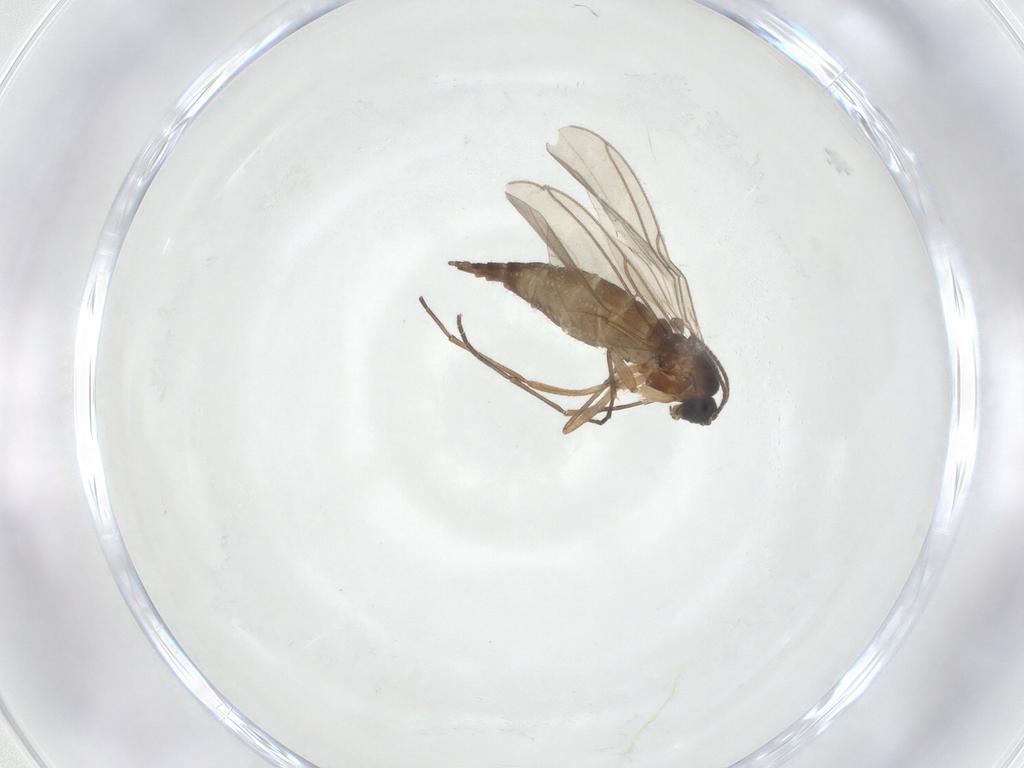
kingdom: Animalia
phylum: Arthropoda
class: Insecta
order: Diptera
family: Sciaridae
